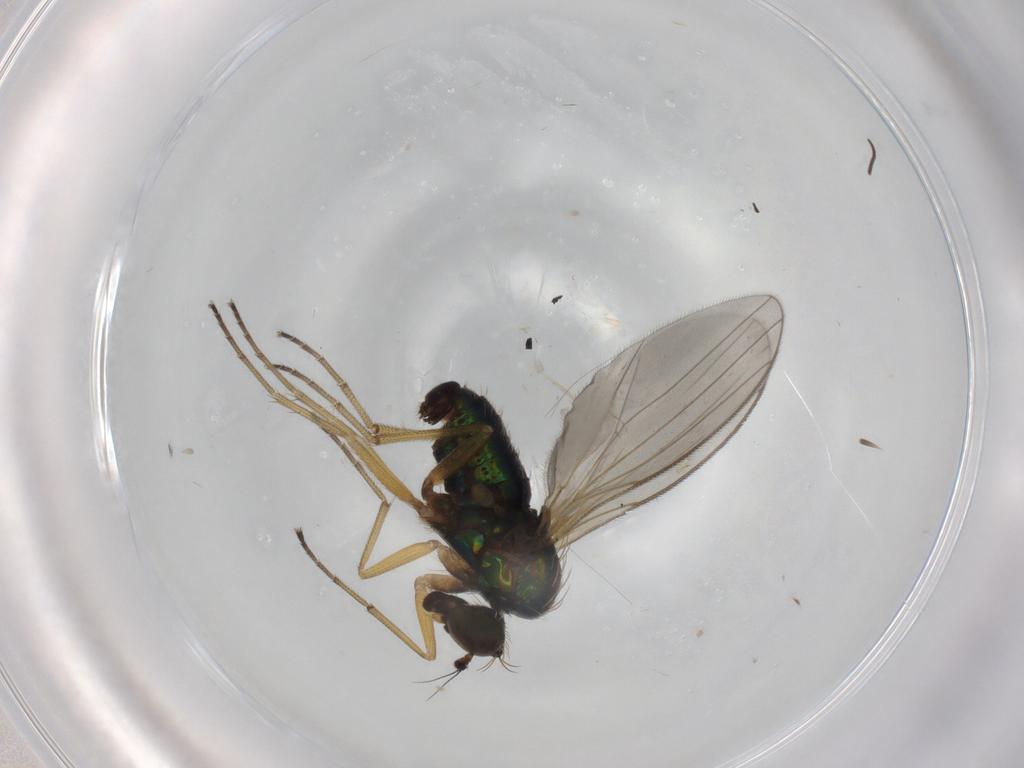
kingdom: Animalia
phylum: Arthropoda
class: Insecta
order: Diptera
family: Dolichopodidae
